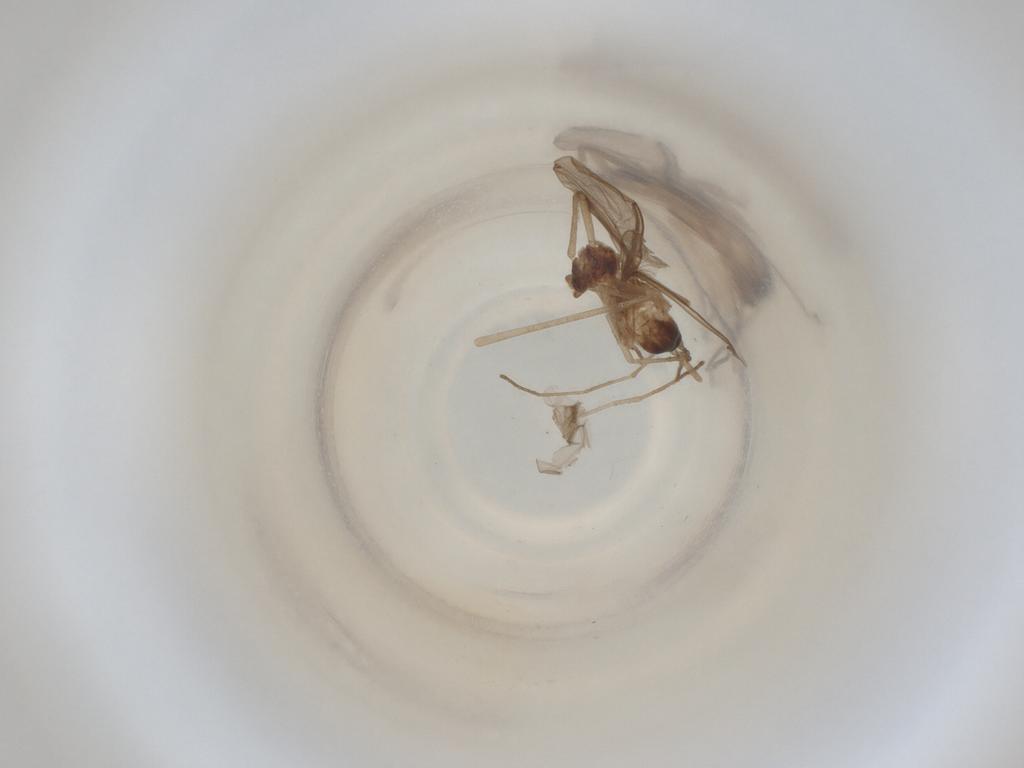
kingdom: Animalia
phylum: Arthropoda
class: Insecta
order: Diptera
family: Cecidomyiidae
